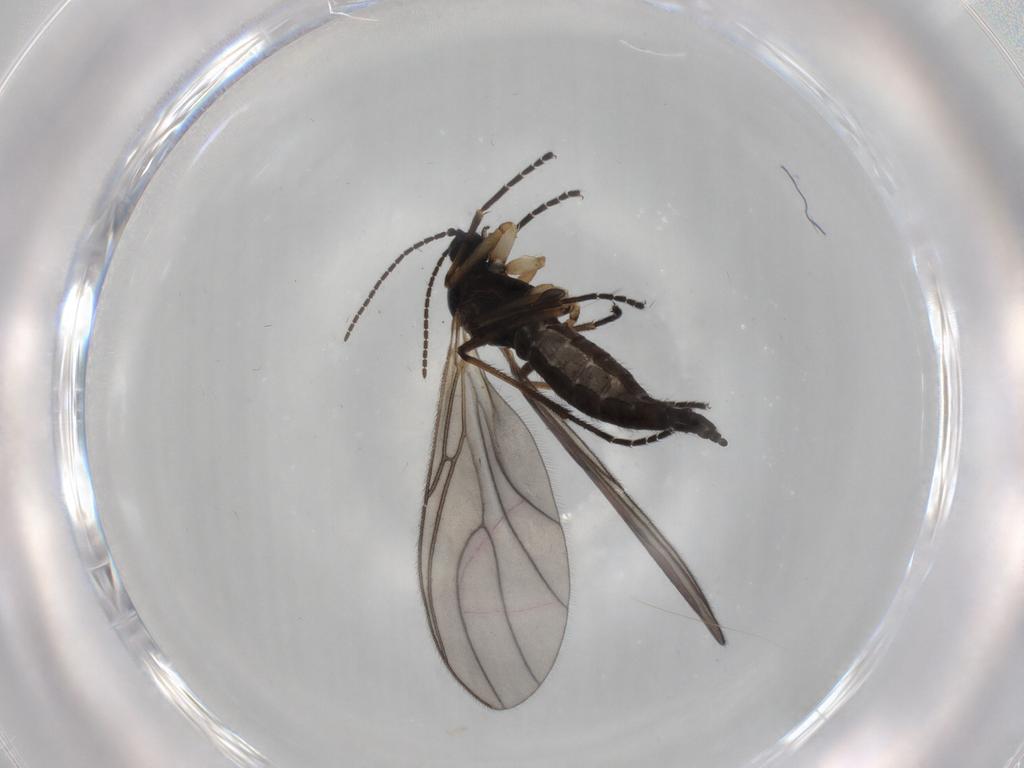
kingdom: Animalia
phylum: Arthropoda
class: Insecta
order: Diptera
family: Sciaridae
